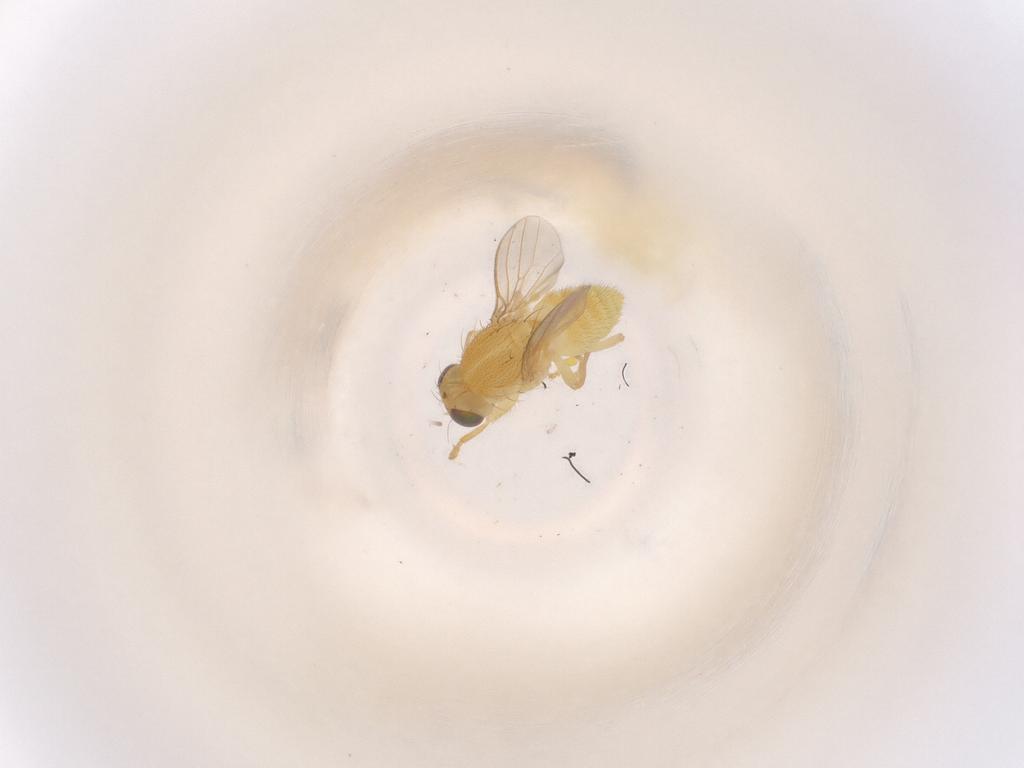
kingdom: Animalia
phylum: Arthropoda
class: Insecta
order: Diptera
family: Chyromyidae
